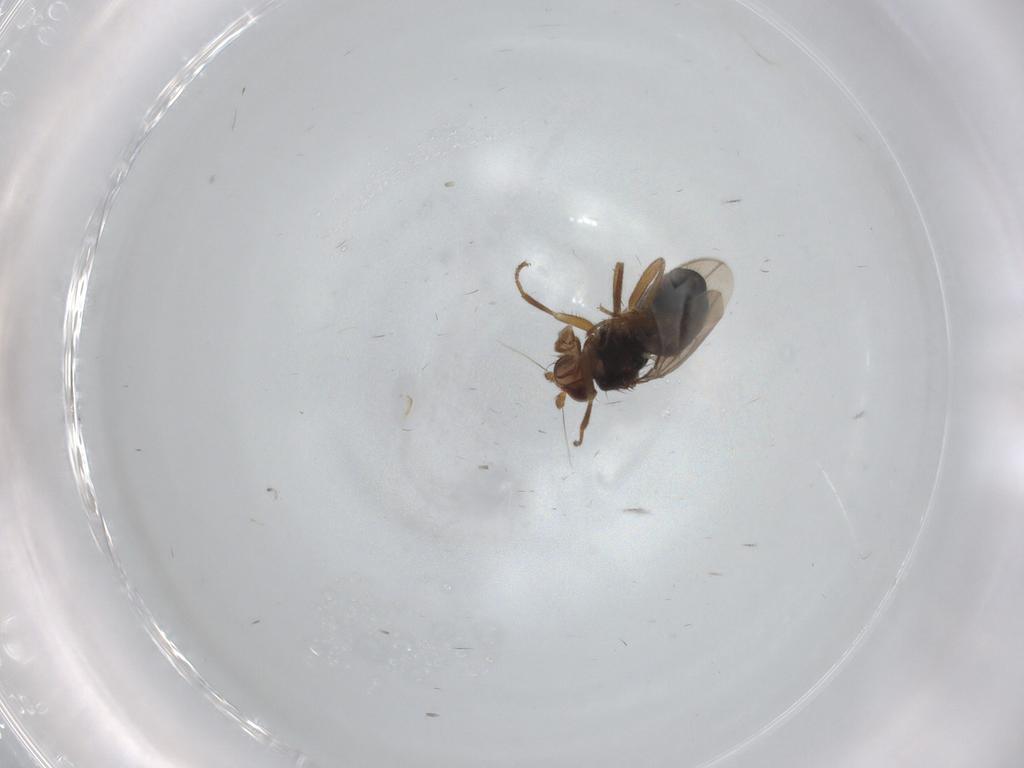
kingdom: Animalia
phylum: Arthropoda
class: Insecta
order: Diptera
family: Sphaeroceridae
